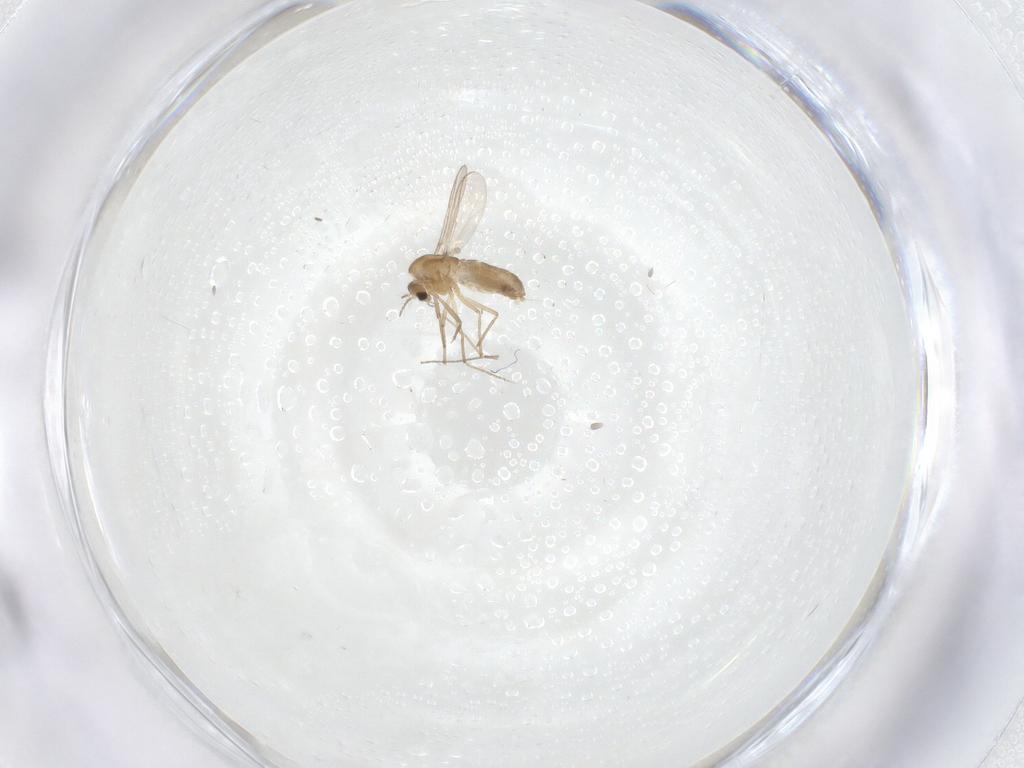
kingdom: Animalia
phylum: Arthropoda
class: Insecta
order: Diptera
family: Chironomidae
